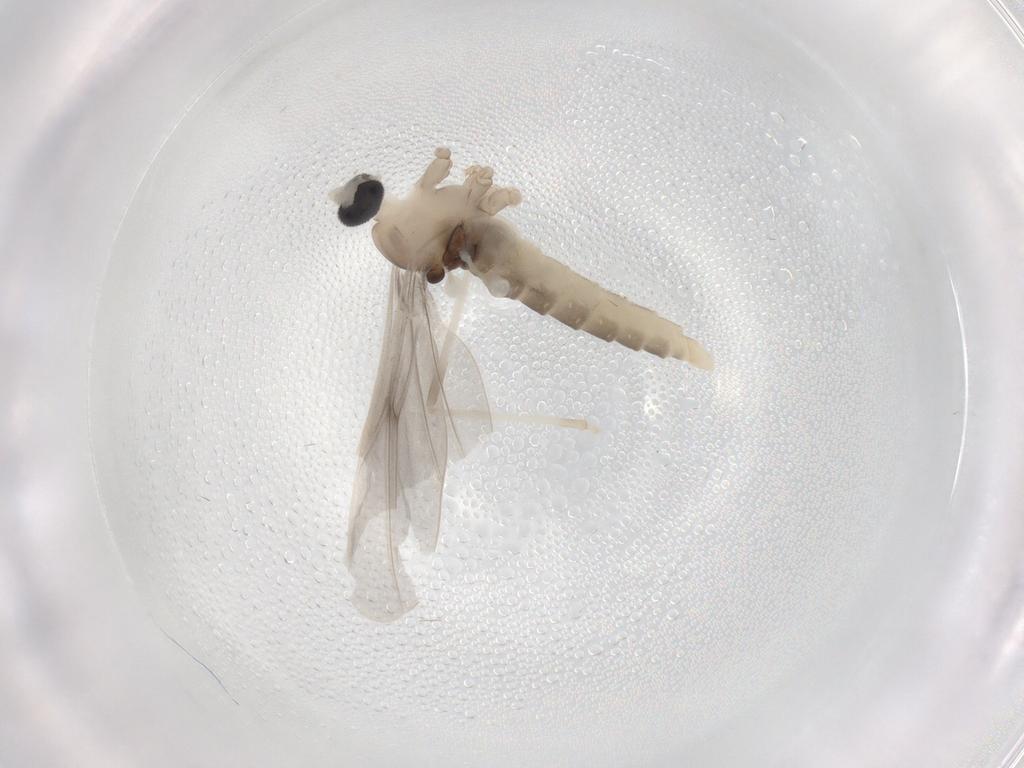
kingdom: Animalia
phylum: Arthropoda
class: Insecta
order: Diptera
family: Cecidomyiidae
